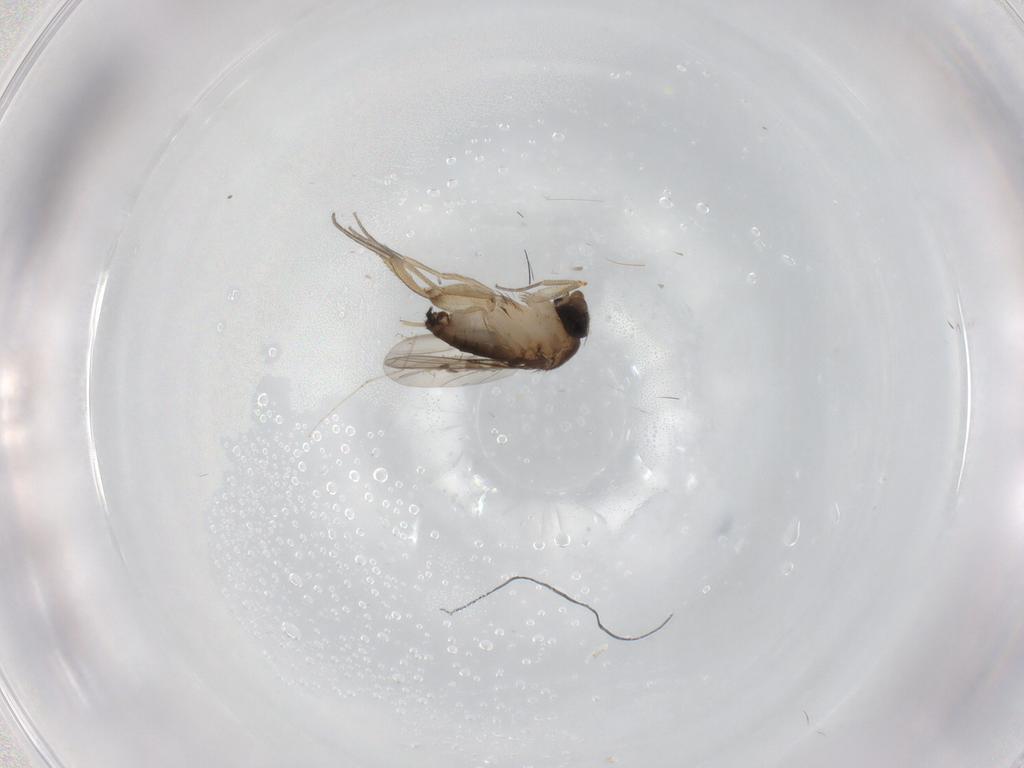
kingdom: Animalia
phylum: Arthropoda
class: Insecta
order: Diptera
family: Phoridae
